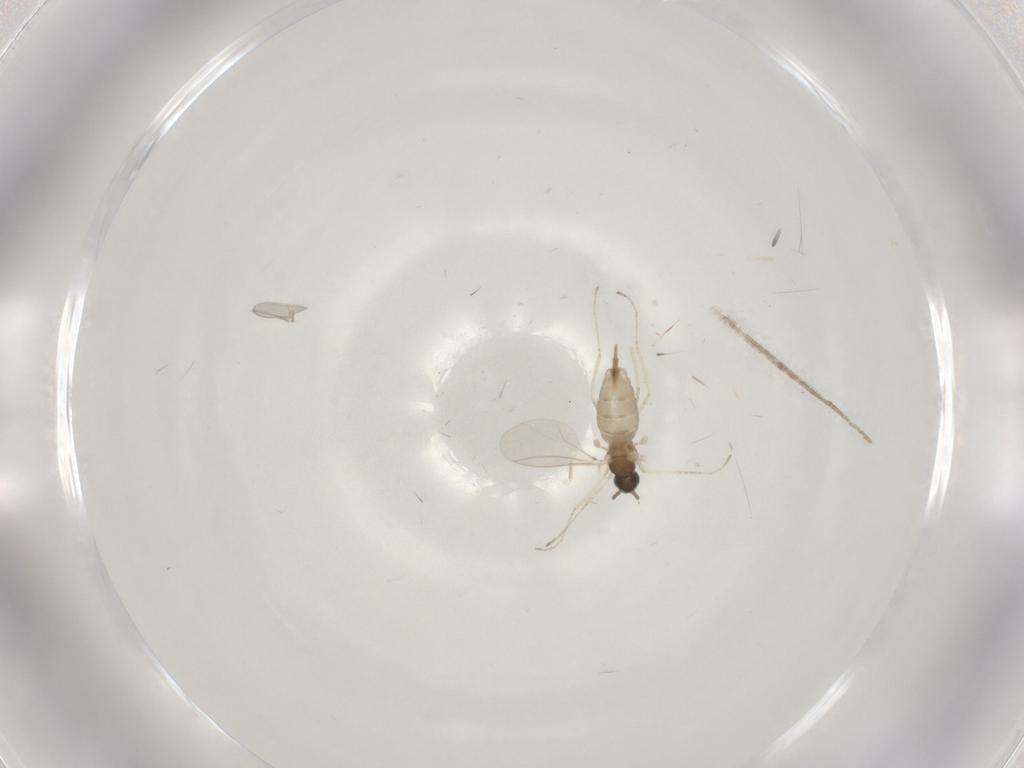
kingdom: Animalia
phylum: Arthropoda
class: Insecta
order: Diptera
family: Cecidomyiidae
